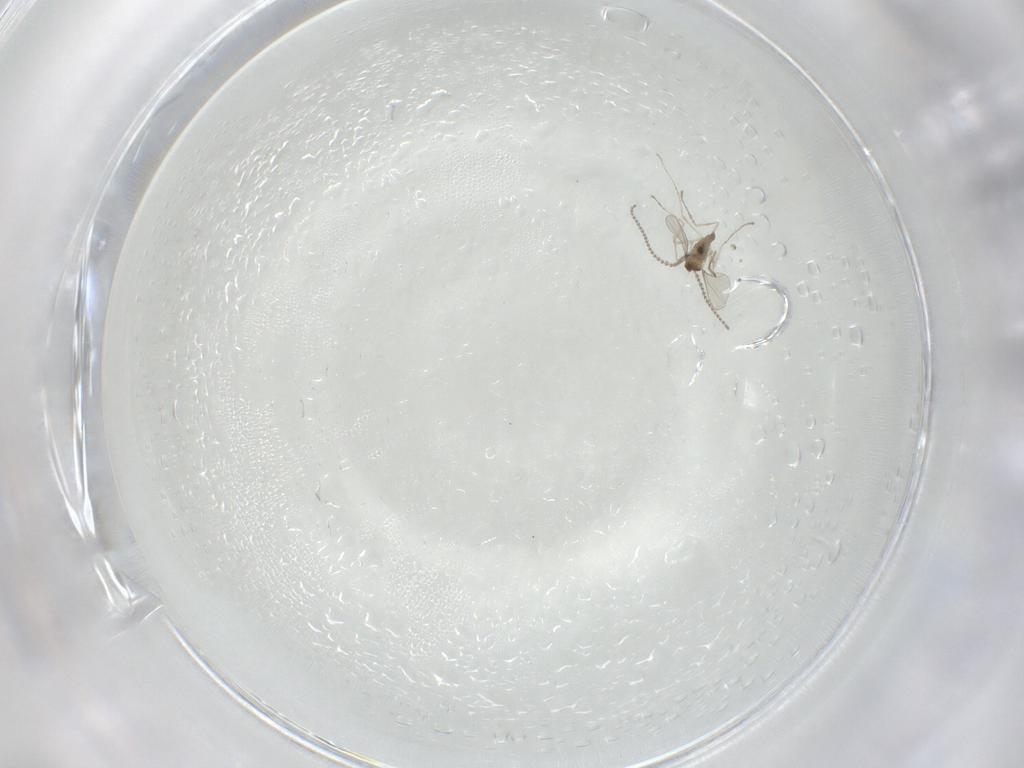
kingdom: Animalia
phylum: Arthropoda
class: Insecta
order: Diptera
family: Cecidomyiidae
